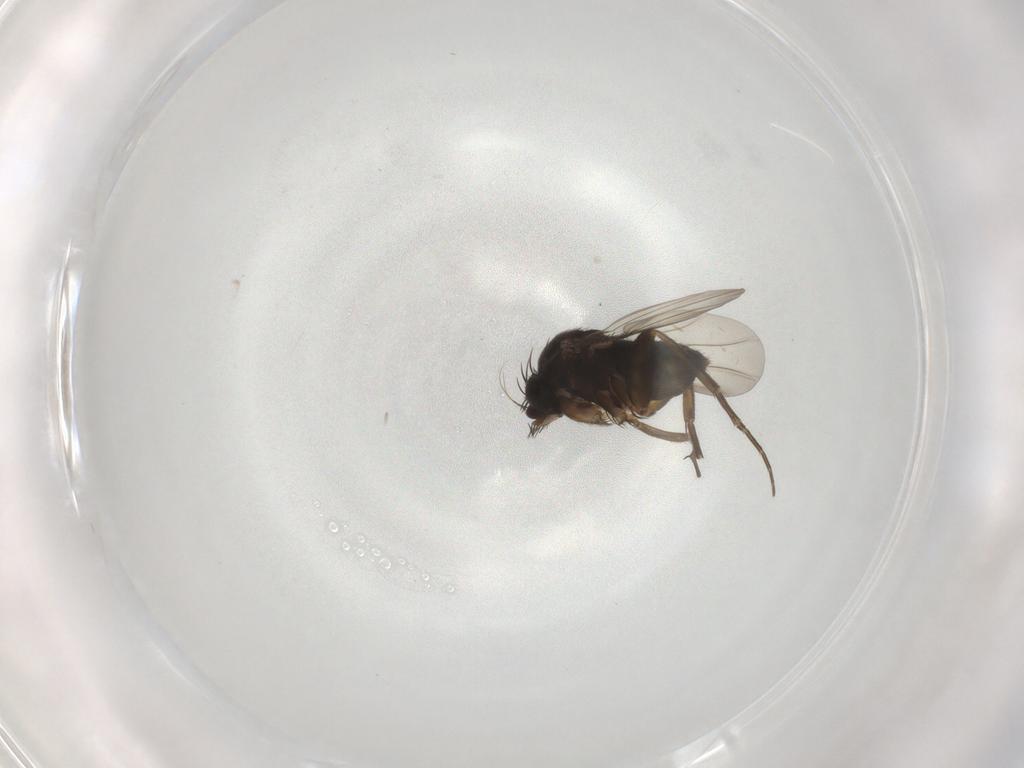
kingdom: Animalia
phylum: Arthropoda
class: Insecta
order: Diptera
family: Phoridae
